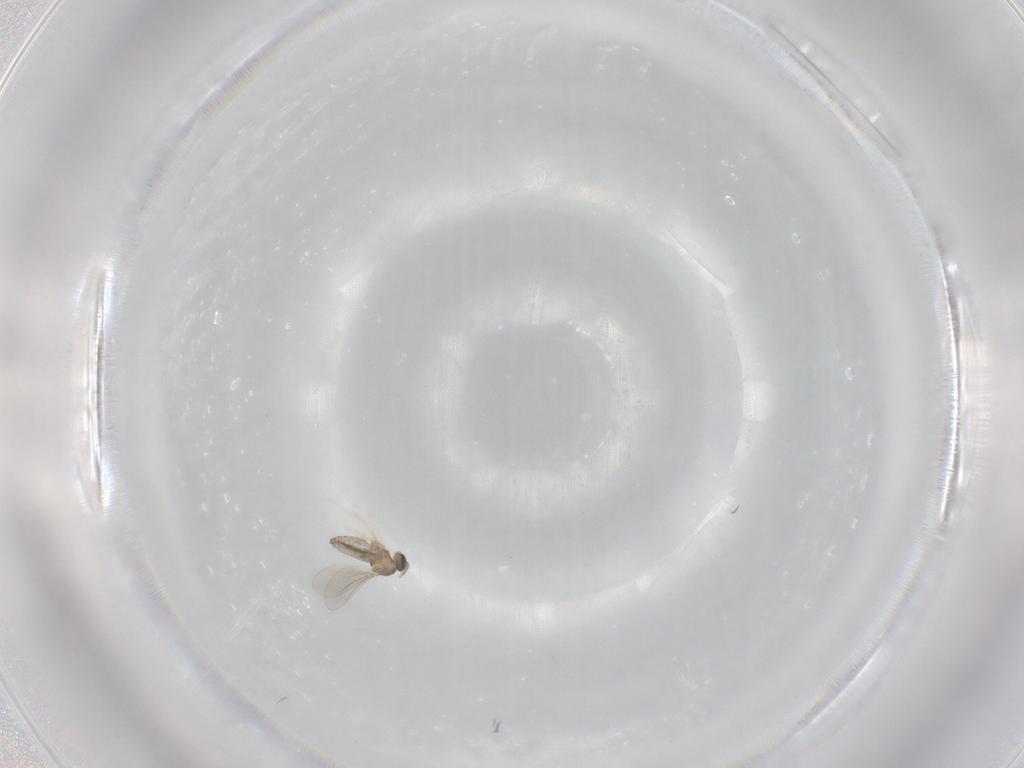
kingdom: Animalia
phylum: Arthropoda
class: Insecta
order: Diptera
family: Cecidomyiidae
